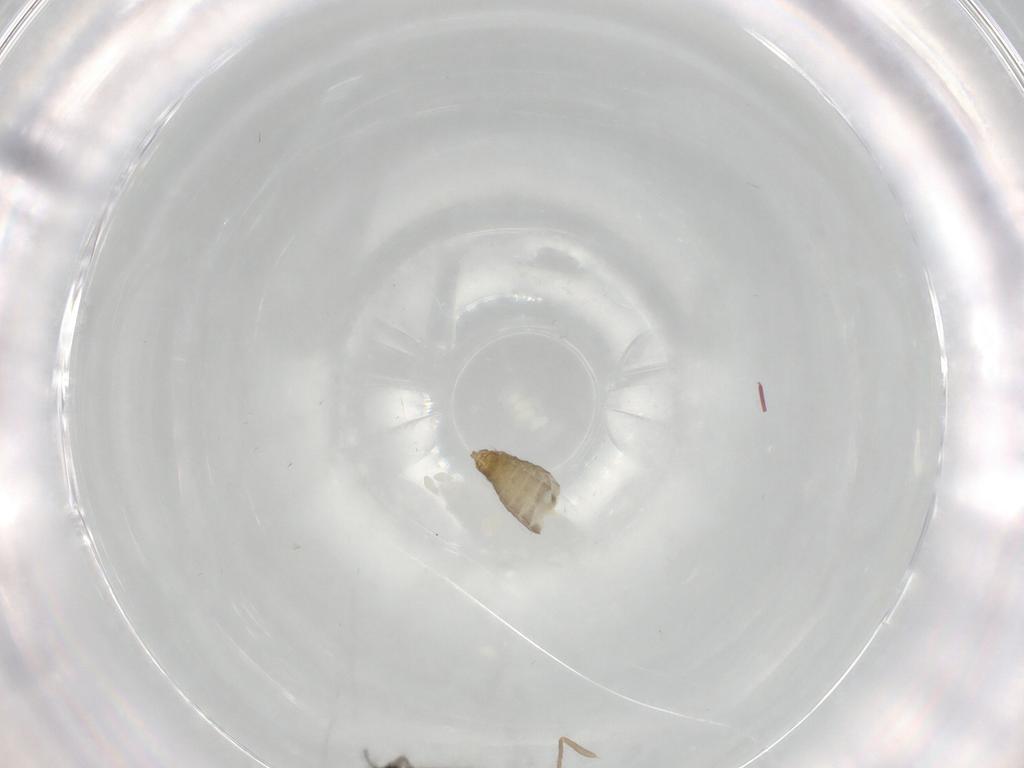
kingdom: Animalia
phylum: Arthropoda
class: Insecta
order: Diptera
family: Chironomidae
